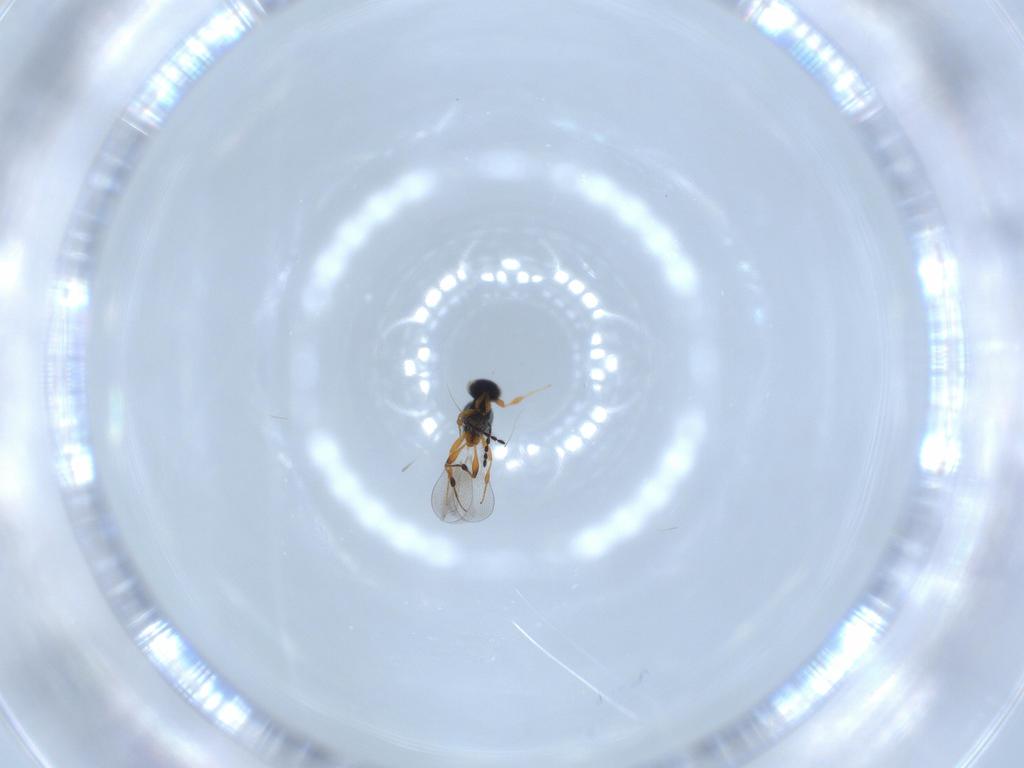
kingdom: Animalia
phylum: Arthropoda
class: Insecta
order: Hymenoptera
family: Platygastridae
